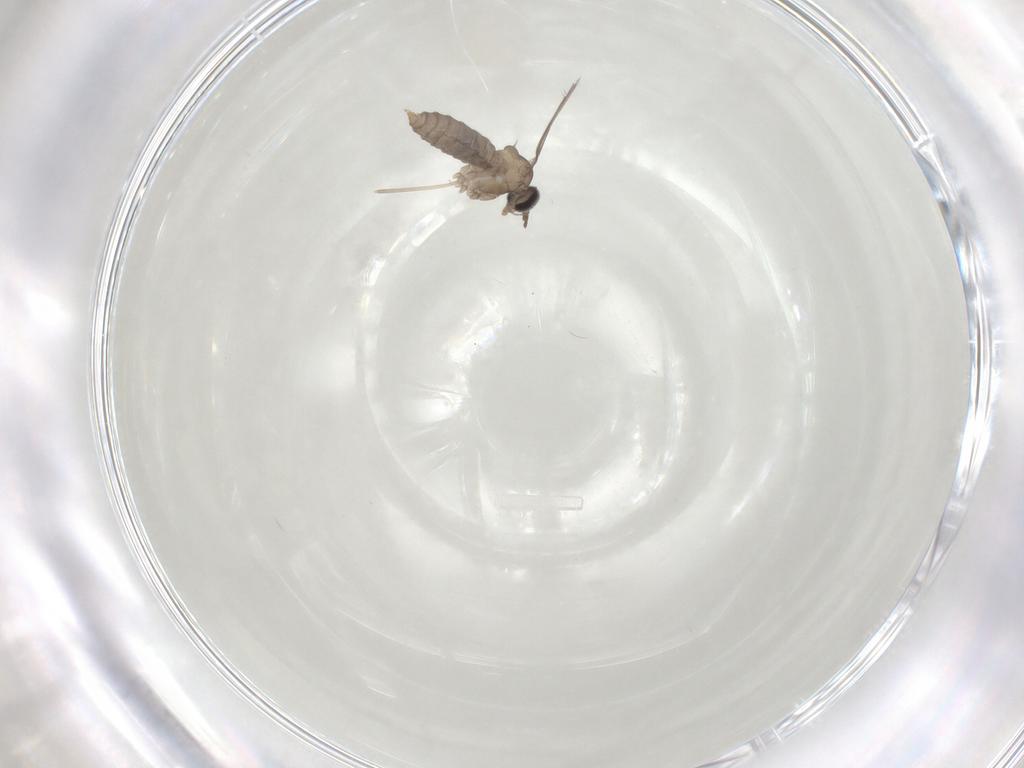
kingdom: Animalia
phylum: Arthropoda
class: Insecta
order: Diptera
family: Cecidomyiidae
